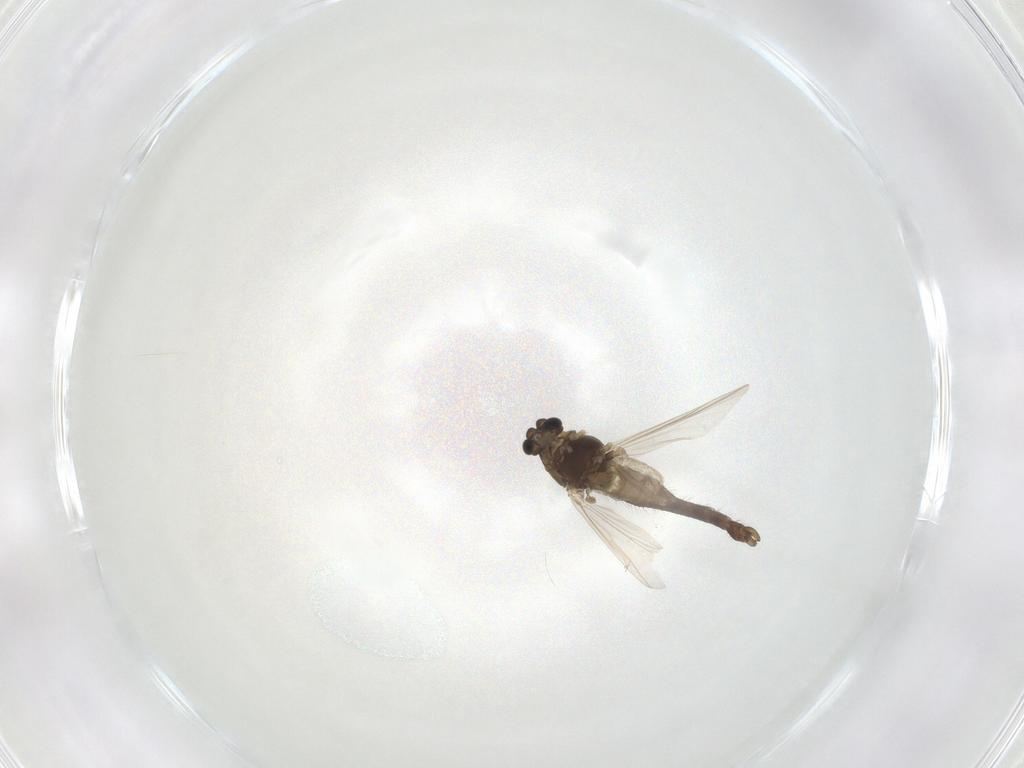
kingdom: Animalia
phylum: Arthropoda
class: Insecta
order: Diptera
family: Chironomidae
